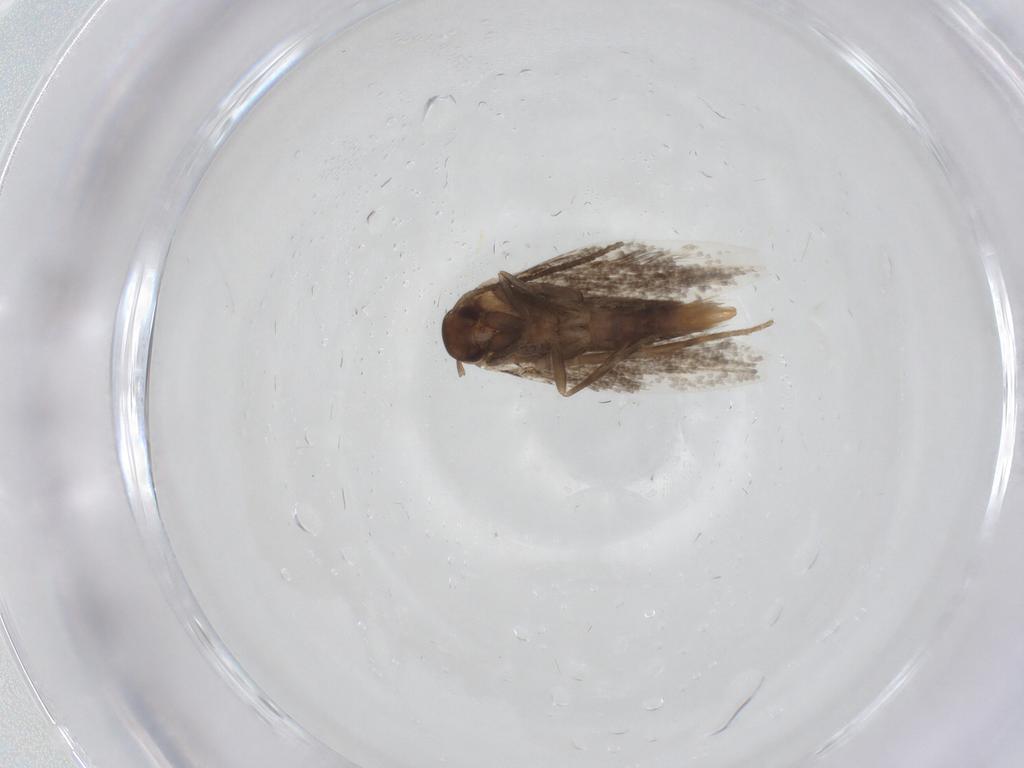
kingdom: Animalia
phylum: Arthropoda
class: Insecta
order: Lepidoptera
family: Elachistidae
